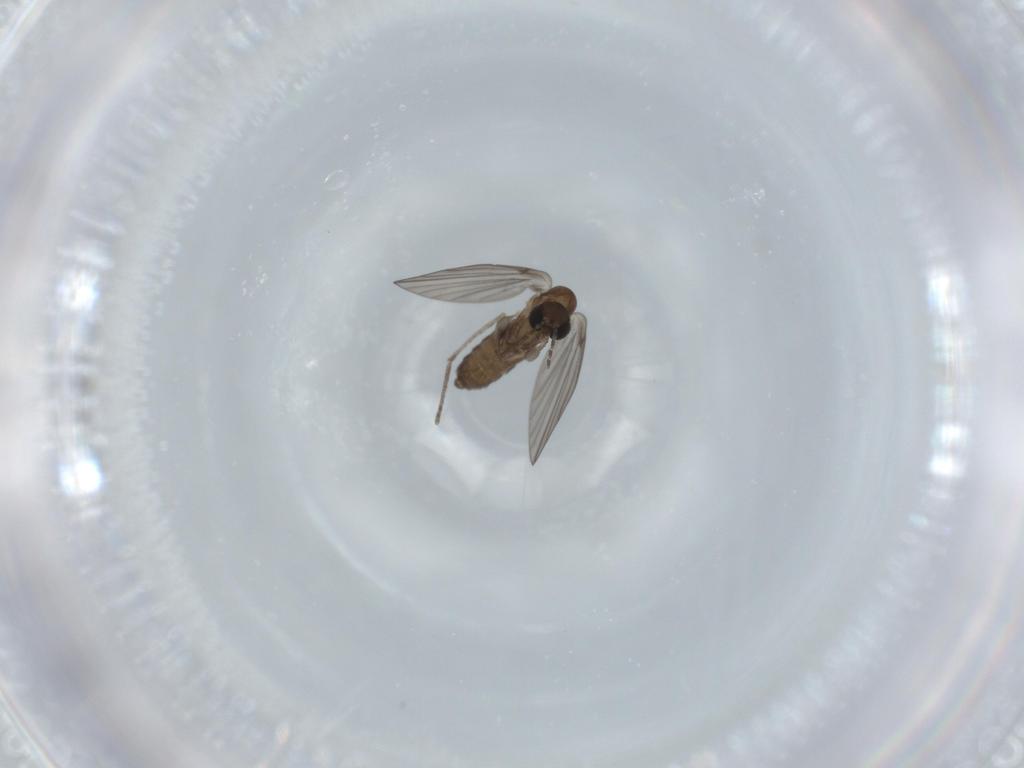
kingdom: Animalia
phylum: Arthropoda
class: Insecta
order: Diptera
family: Psychodidae
